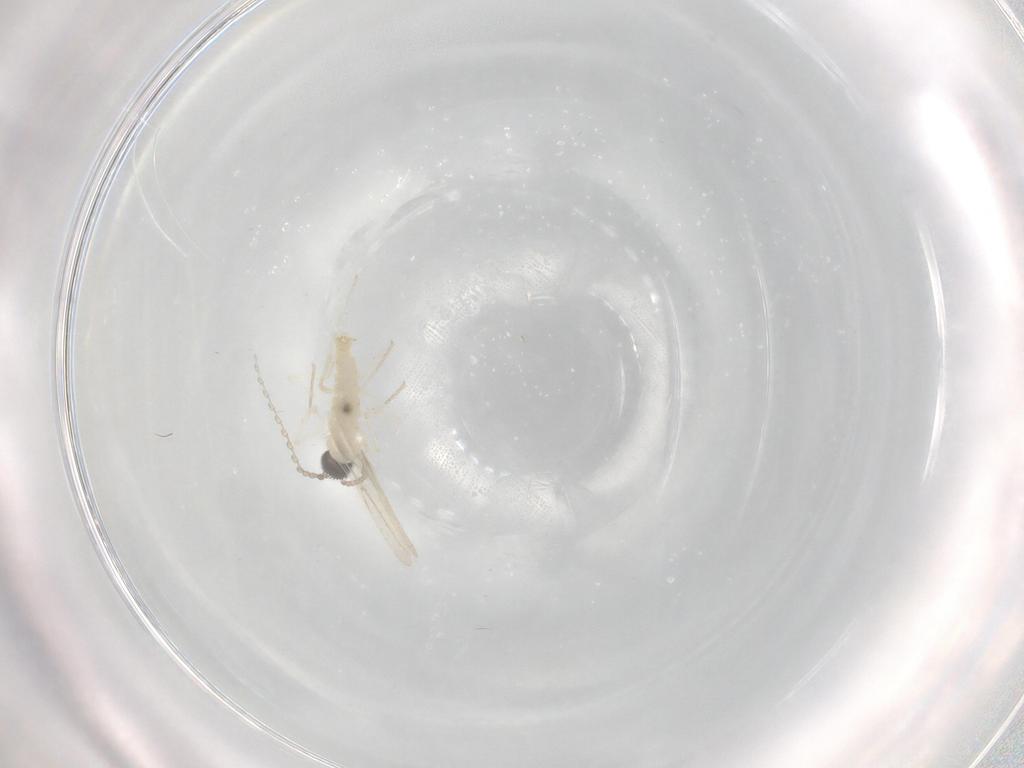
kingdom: Animalia
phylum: Arthropoda
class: Insecta
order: Diptera
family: Cecidomyiidae
